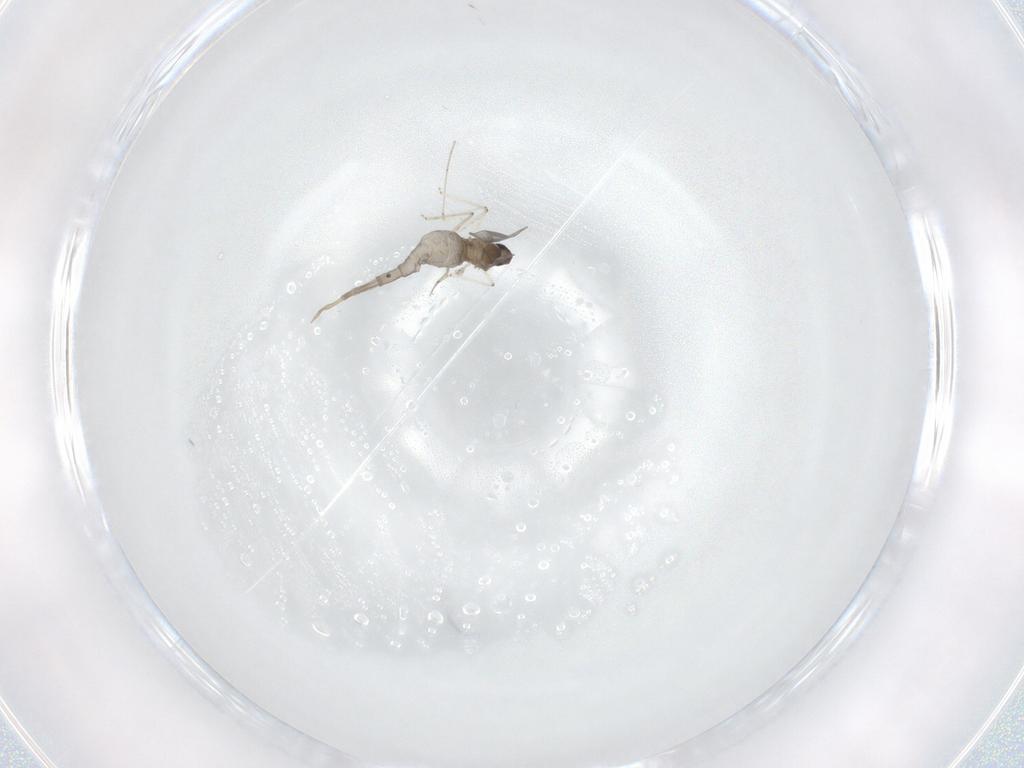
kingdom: Animalia
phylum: Arthropoda
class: Insecta
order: Diptera
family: Cecidomyiidae
